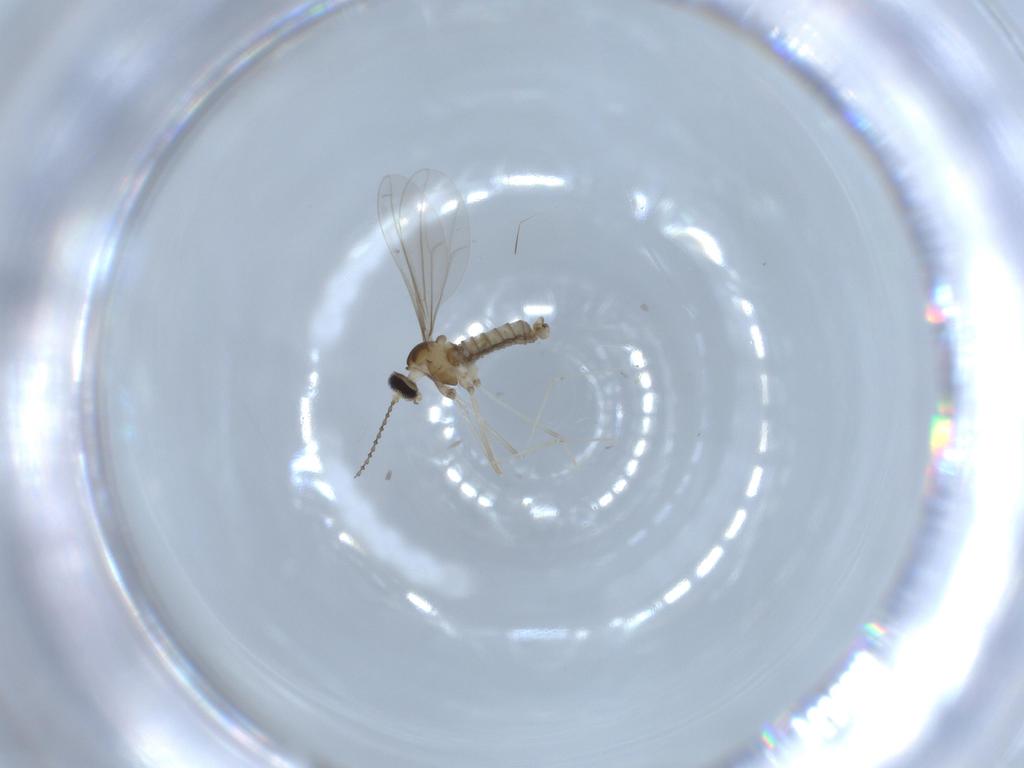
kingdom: Animalia
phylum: Arthropoda
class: Insecta
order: Diptera
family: Cecidomyiidae
